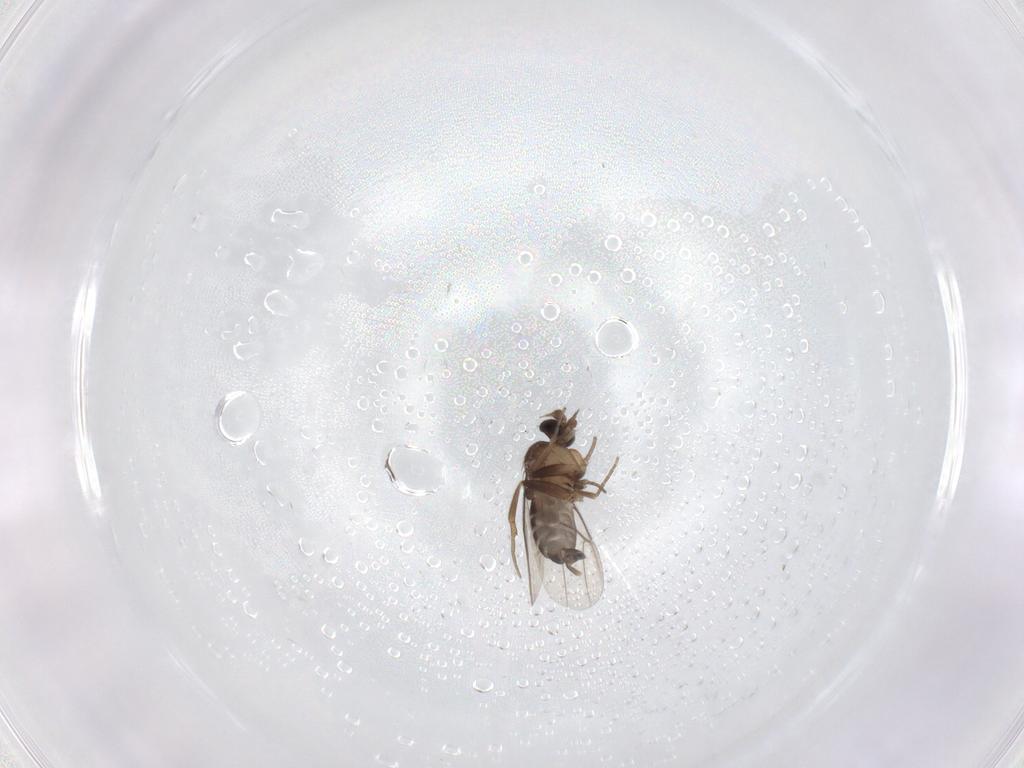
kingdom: Animalia
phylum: Arthropoda
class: Insecta
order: Diptera
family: Phoridae
